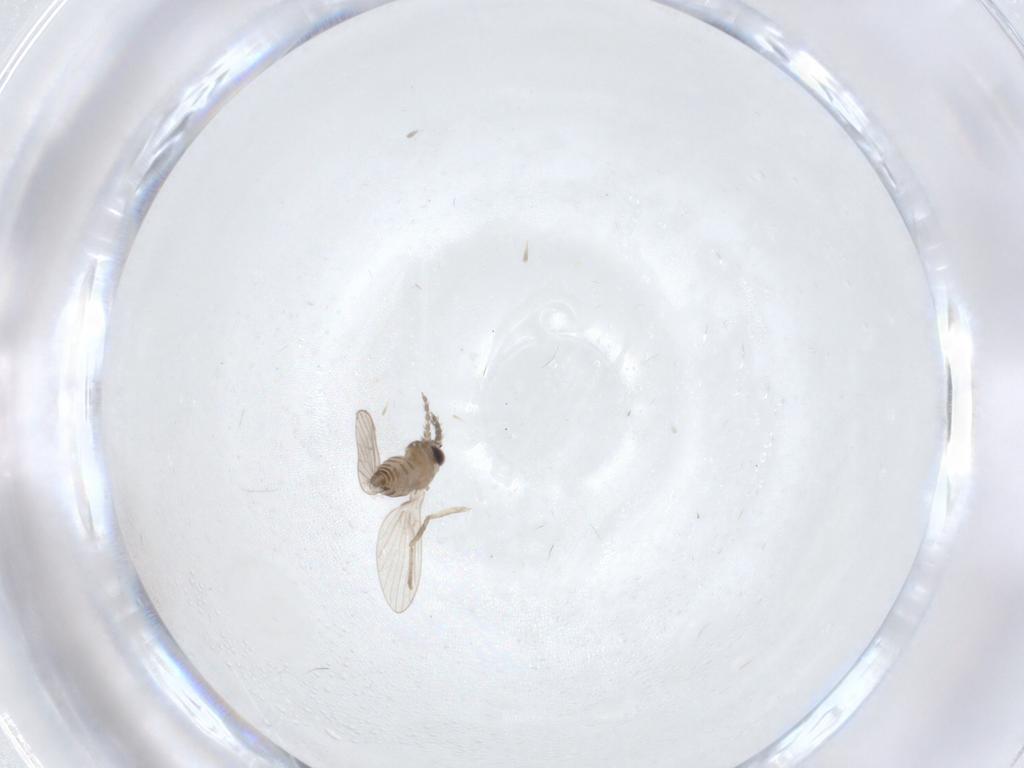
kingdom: Animalia
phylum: Arthropoda
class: Insecta
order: Diptera
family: Psychodidae
